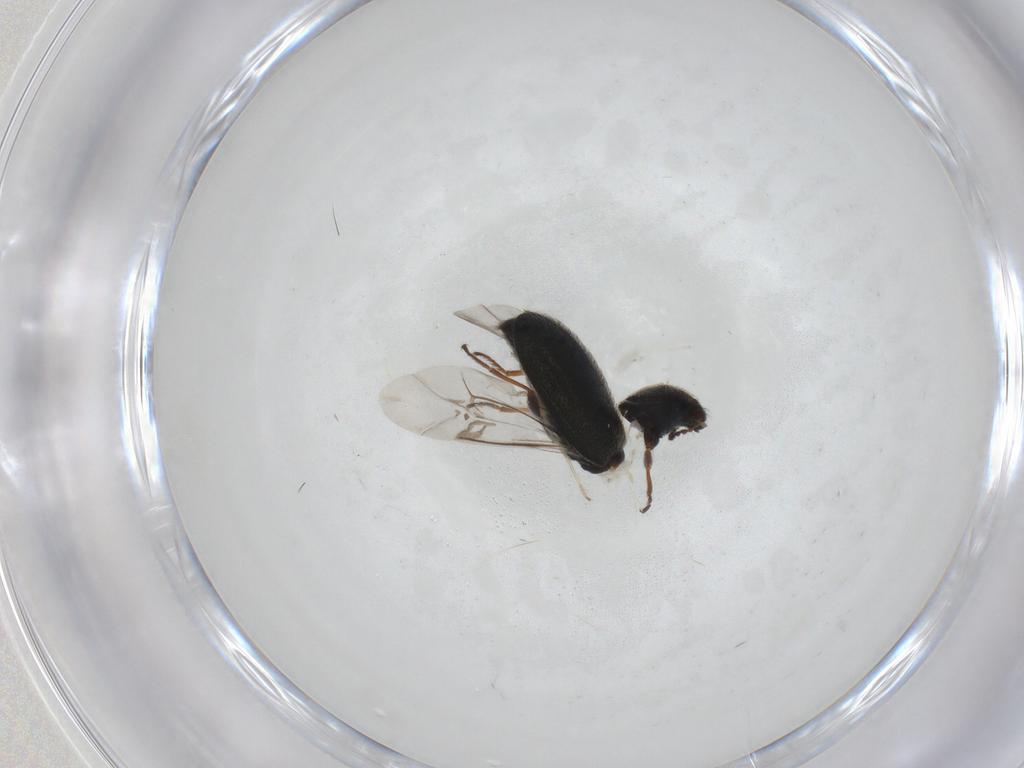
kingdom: Animalia
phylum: Arthropoda
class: Insecta
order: Coleoptera
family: Melyridae
